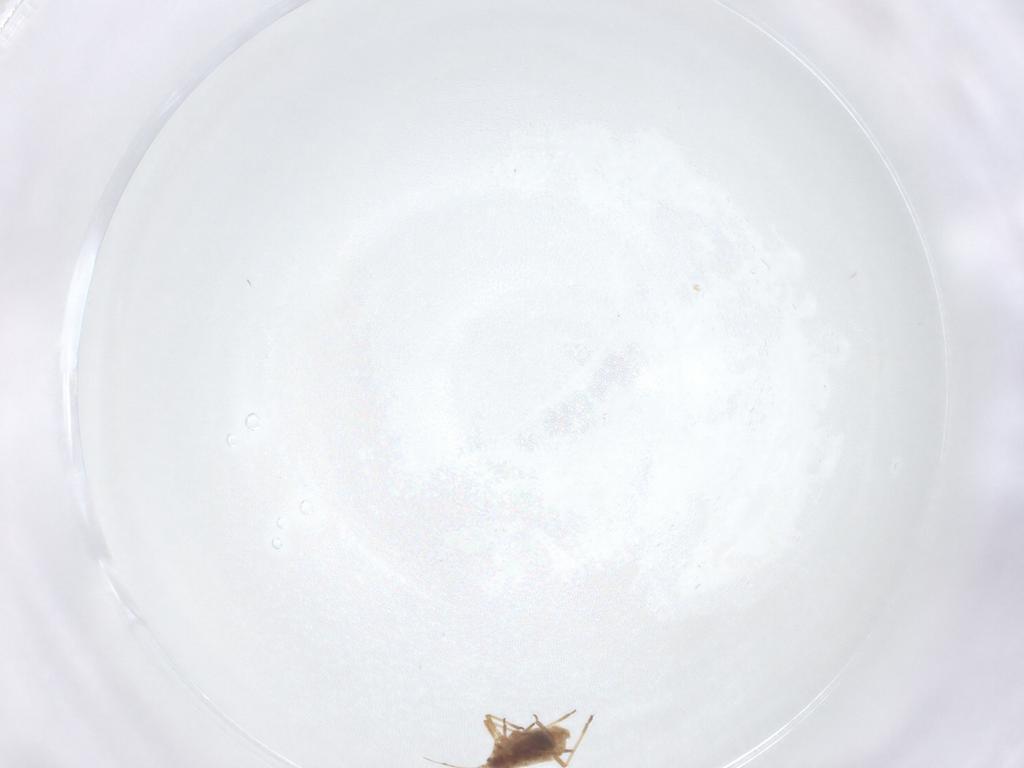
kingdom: Animalia
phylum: Arthropoda
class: Insecta
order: Hemiptera
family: Aphididae
